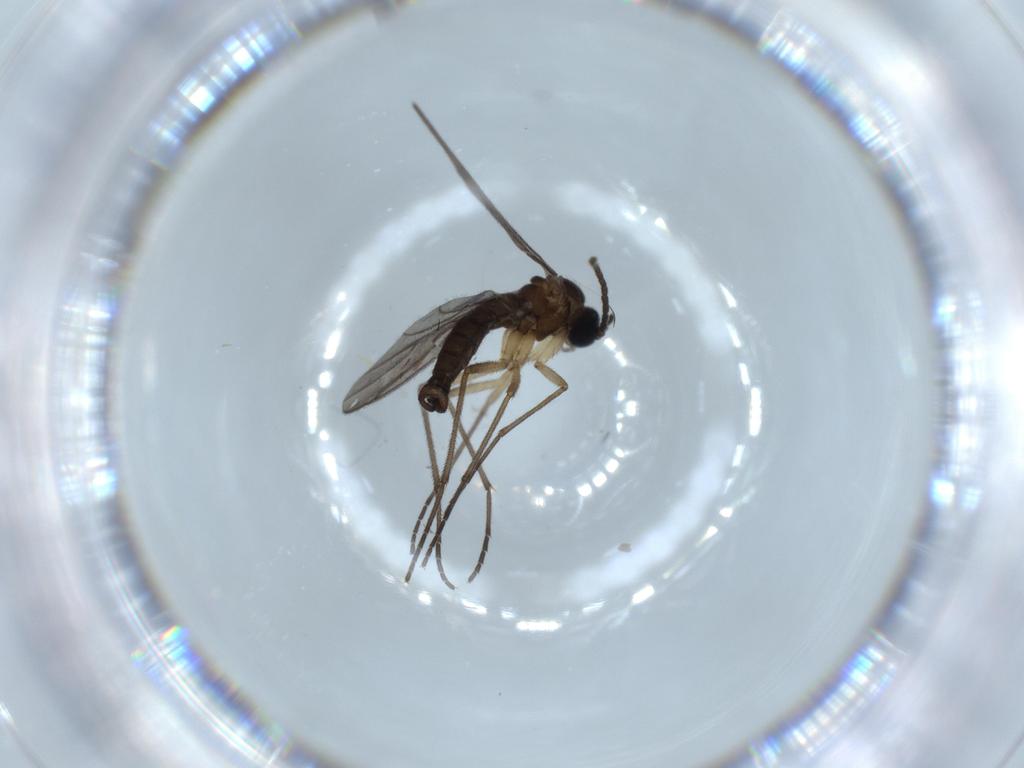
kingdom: Animalia
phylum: Arthropoda
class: Insecta
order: Diptera
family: Sciaridae
